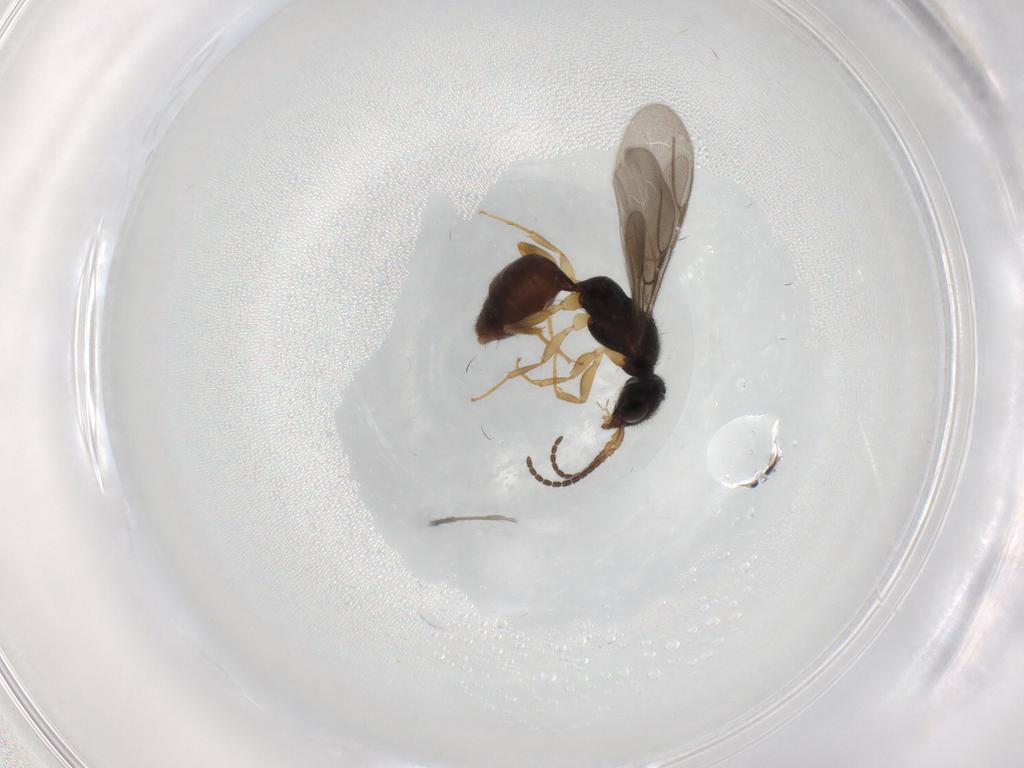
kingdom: Animalia
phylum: Arthropoda
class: Insecta
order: Hymenoptera
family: Bethylidae
